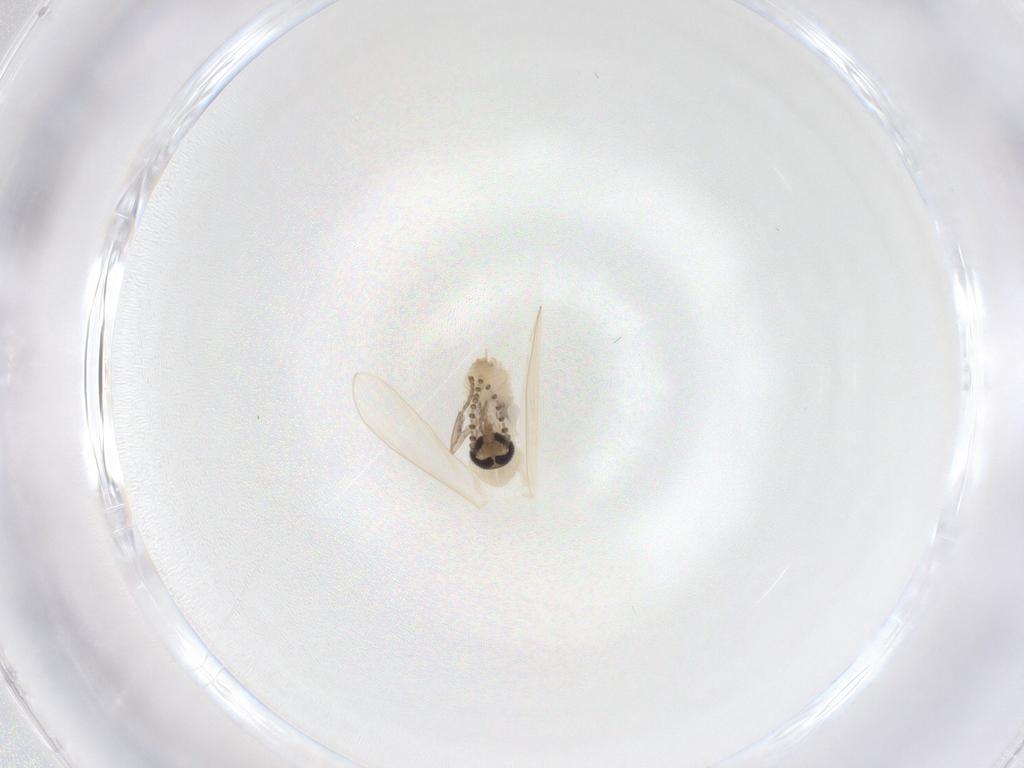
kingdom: Animalia
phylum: Arthropoda
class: Insecta
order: Diptera
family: Psychodidae
